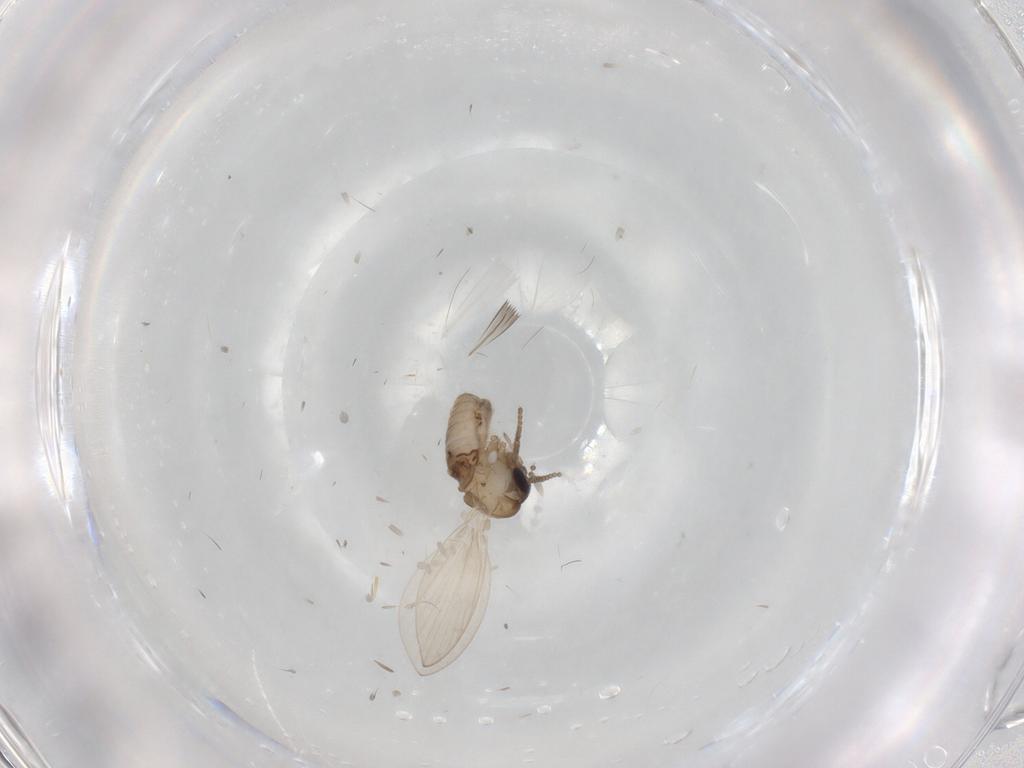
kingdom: Animalia
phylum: Arthropoda
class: Insecta
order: Diptera
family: Psychodidae
